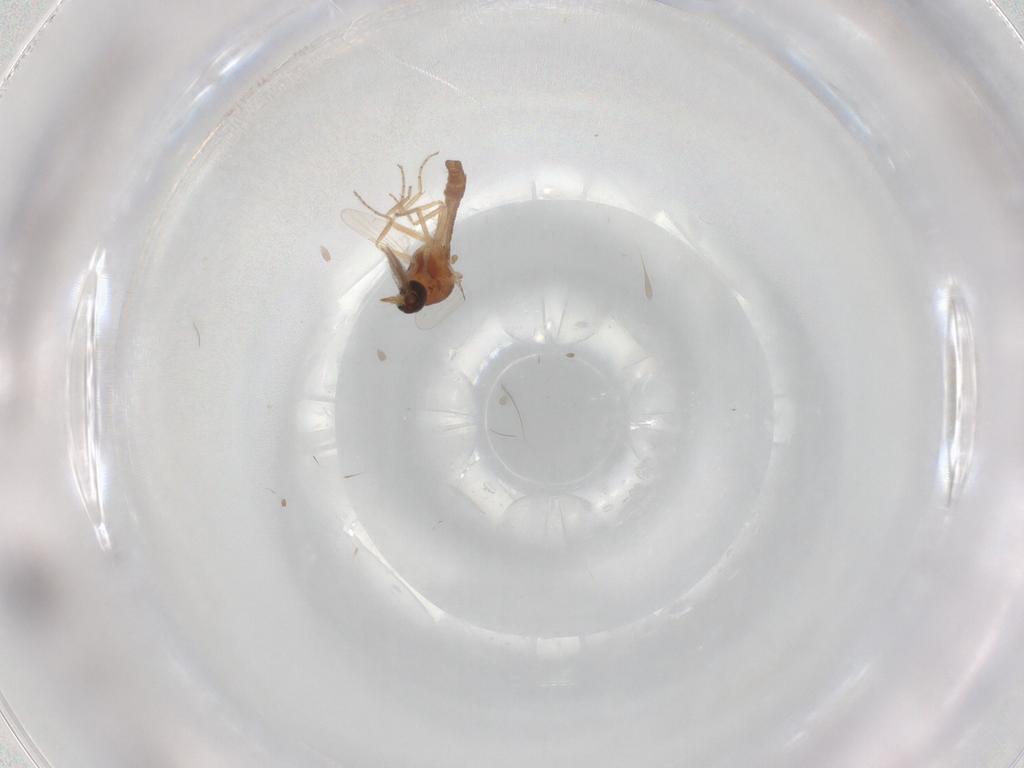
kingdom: Animalia
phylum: Arthropoda
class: Insecta
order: Diptera
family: Ceratopogonidae
